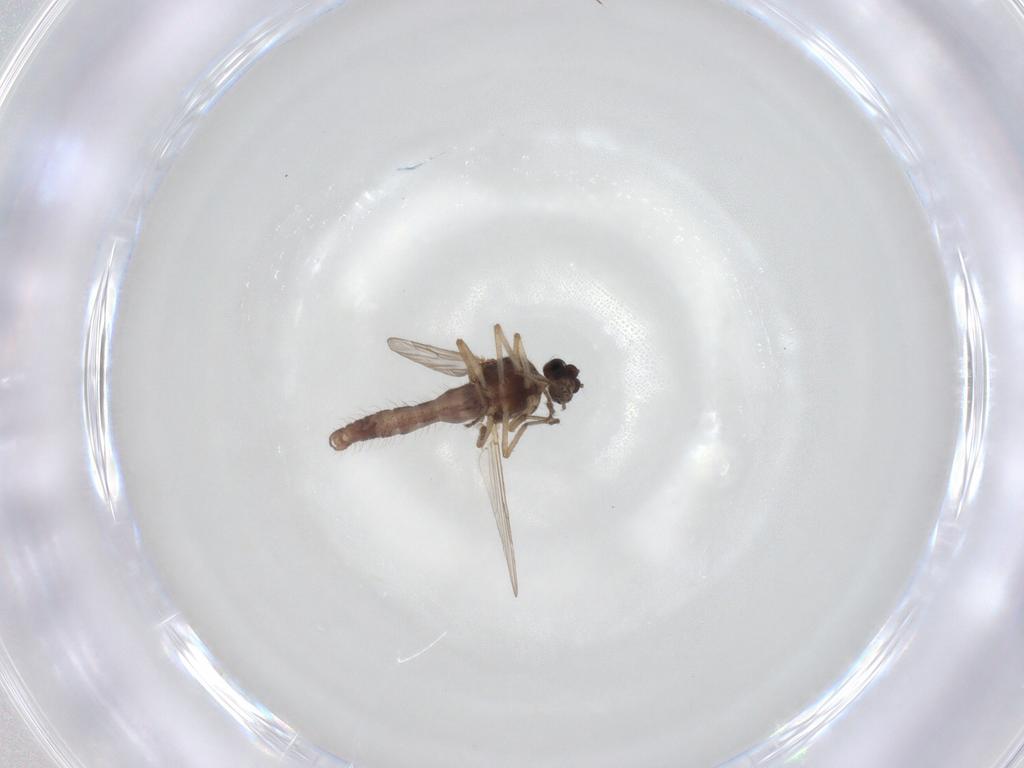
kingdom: Animalia
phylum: Arthropoda
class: Insecta
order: Diptera
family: Ceratopogonidae
